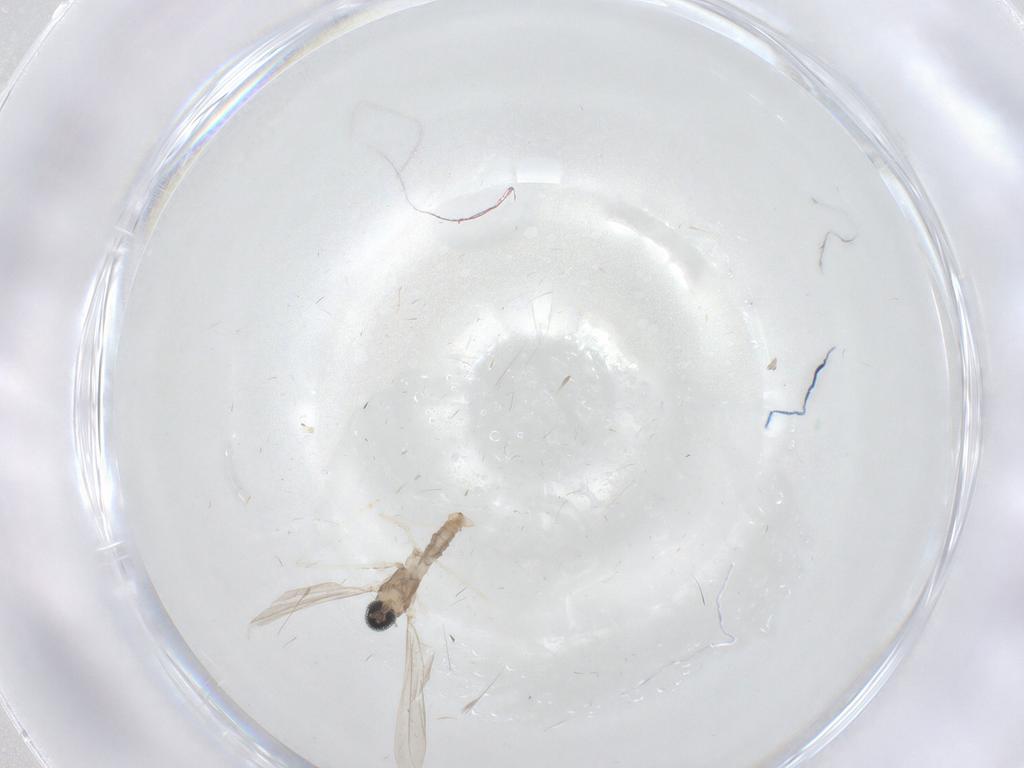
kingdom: Animalia
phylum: Arthropoda
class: Insecta
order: Diptera
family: Cecidomyiidae
